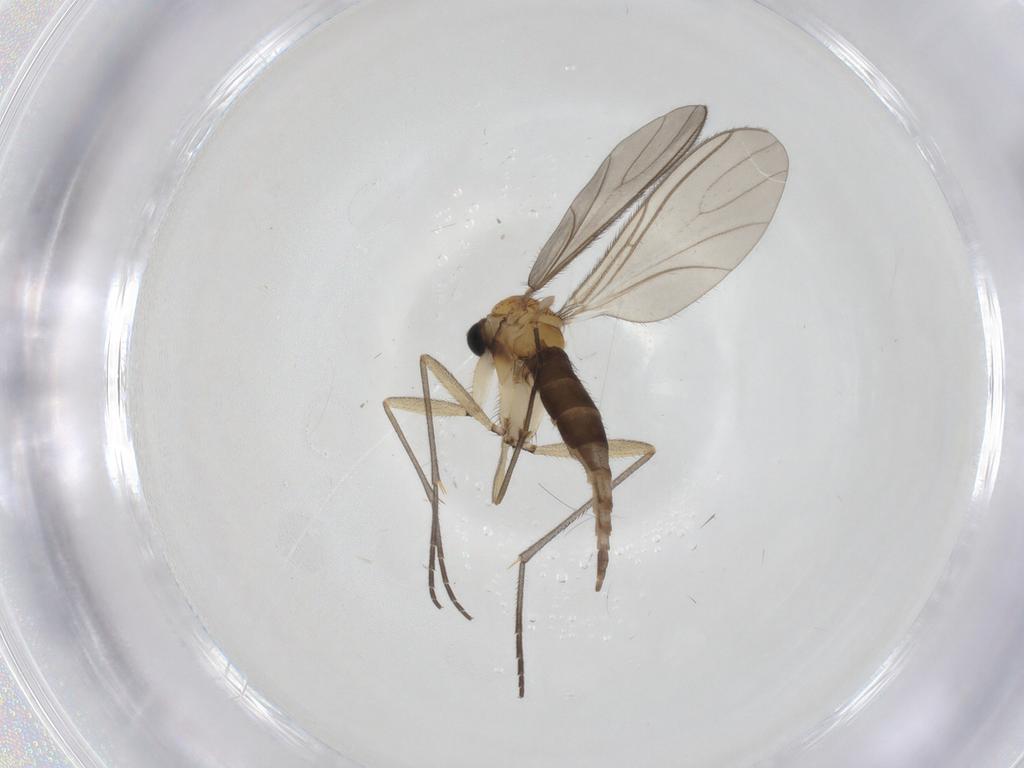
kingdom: Animalia
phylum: Arthropoda
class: Insecta
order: Diptera
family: Sciaridae
